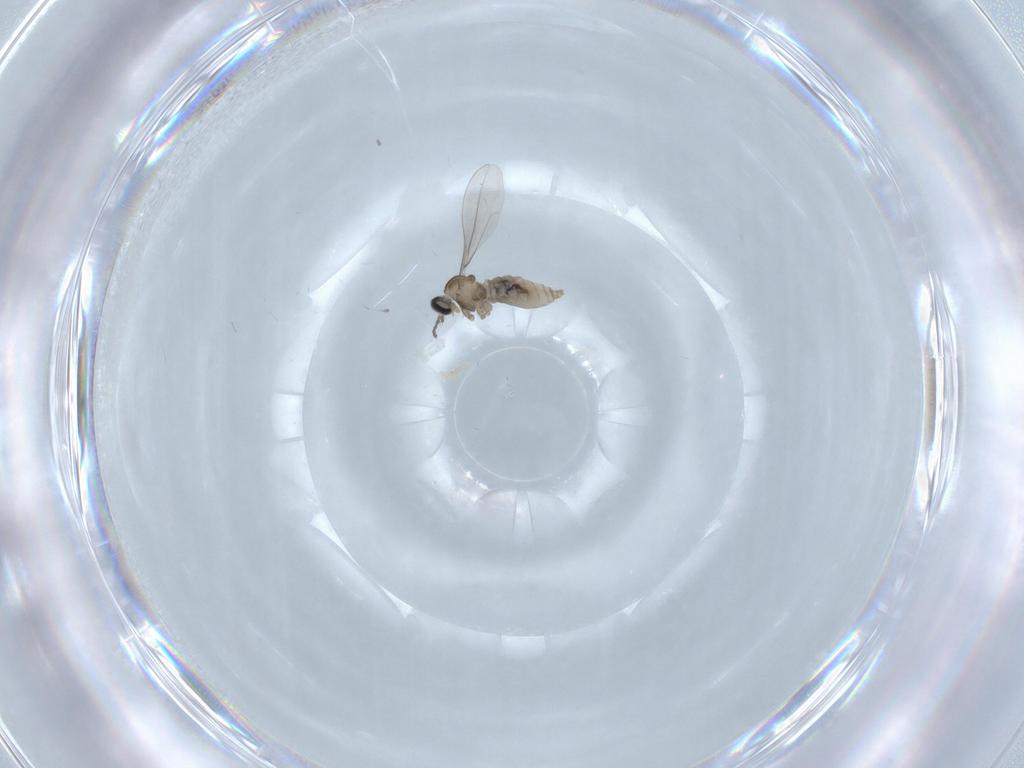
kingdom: Animalia
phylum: Arthropoda
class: Insecta
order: Diptera
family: Cecidomyiidae
